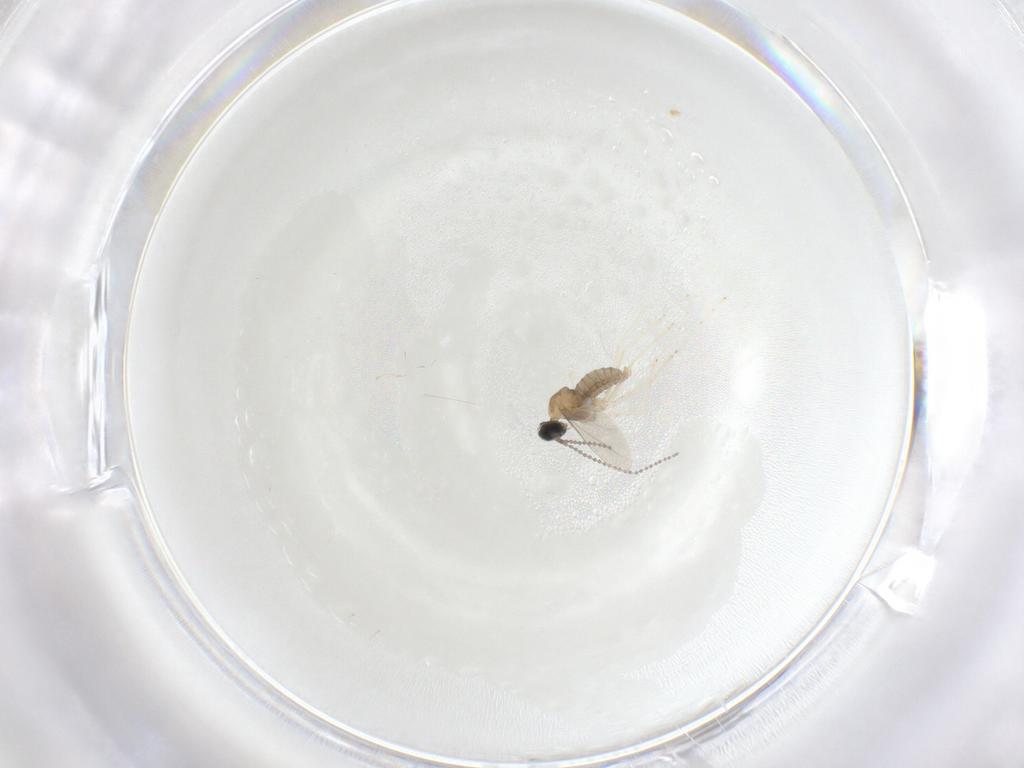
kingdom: Animalia
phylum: Arthropoda
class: Insecta
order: Diptera
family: Cecidomyiidae
